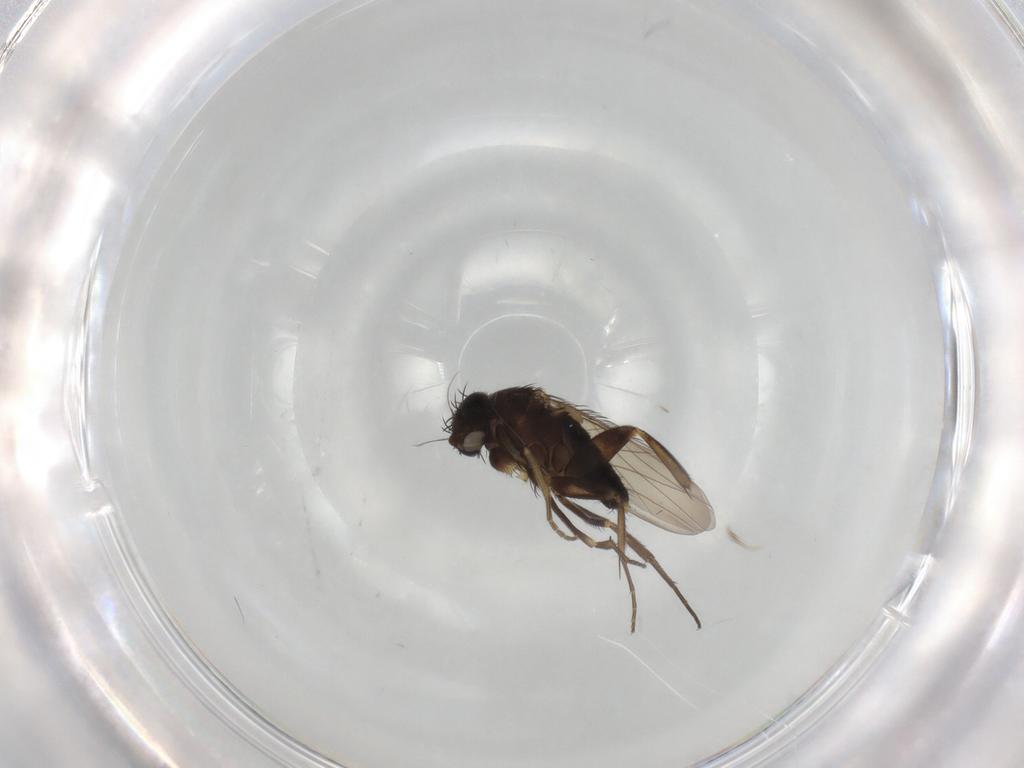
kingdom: Animalia
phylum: Arthropoda
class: Insecta
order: Diptera
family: Phoridae
